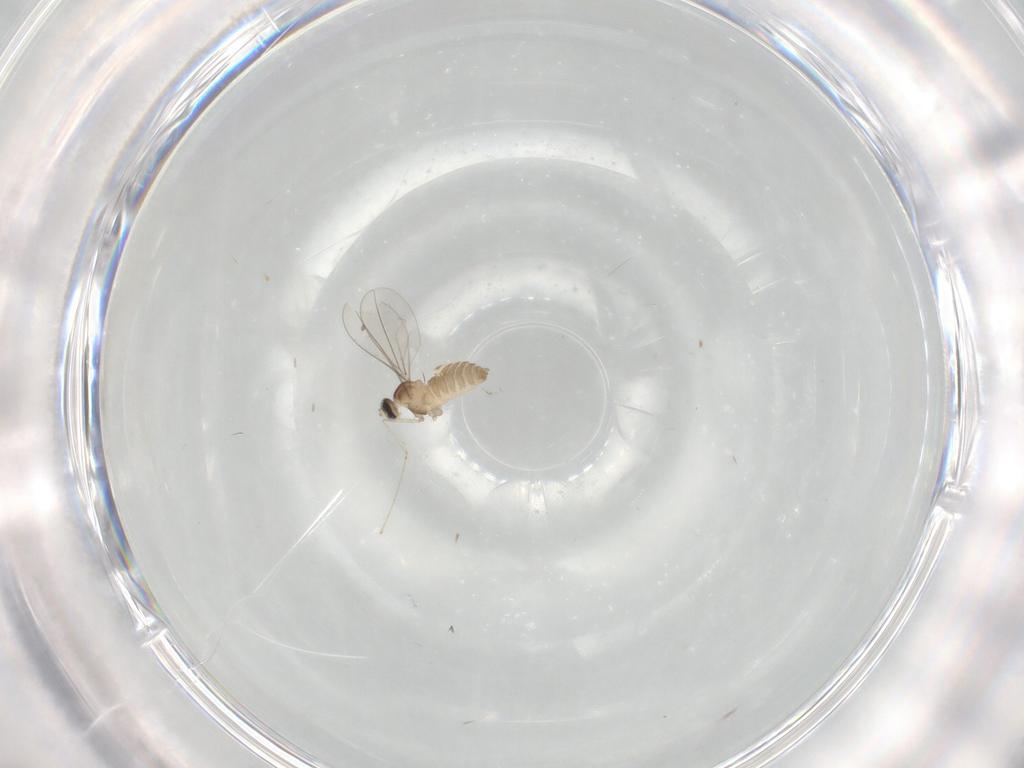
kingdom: Animalia
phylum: Arthropoda
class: Insecta
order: Diptera
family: Cecidomyiidae
